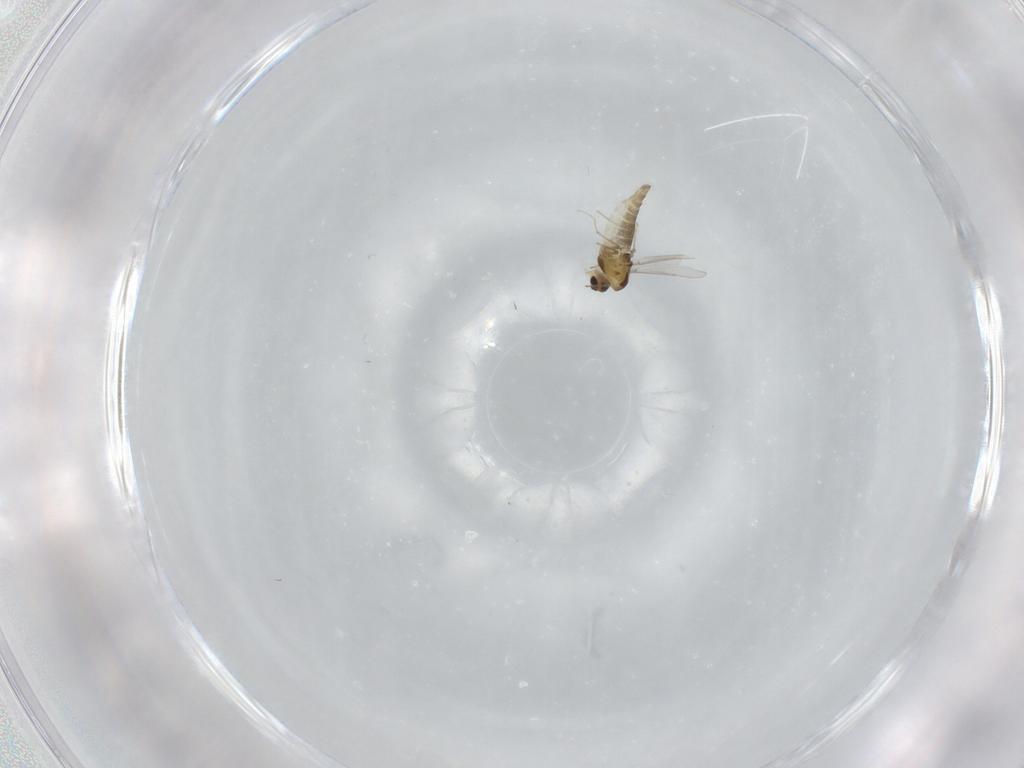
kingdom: Animalia
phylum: Arthropoda
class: Insecta
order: Diptera
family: Chironomidae
